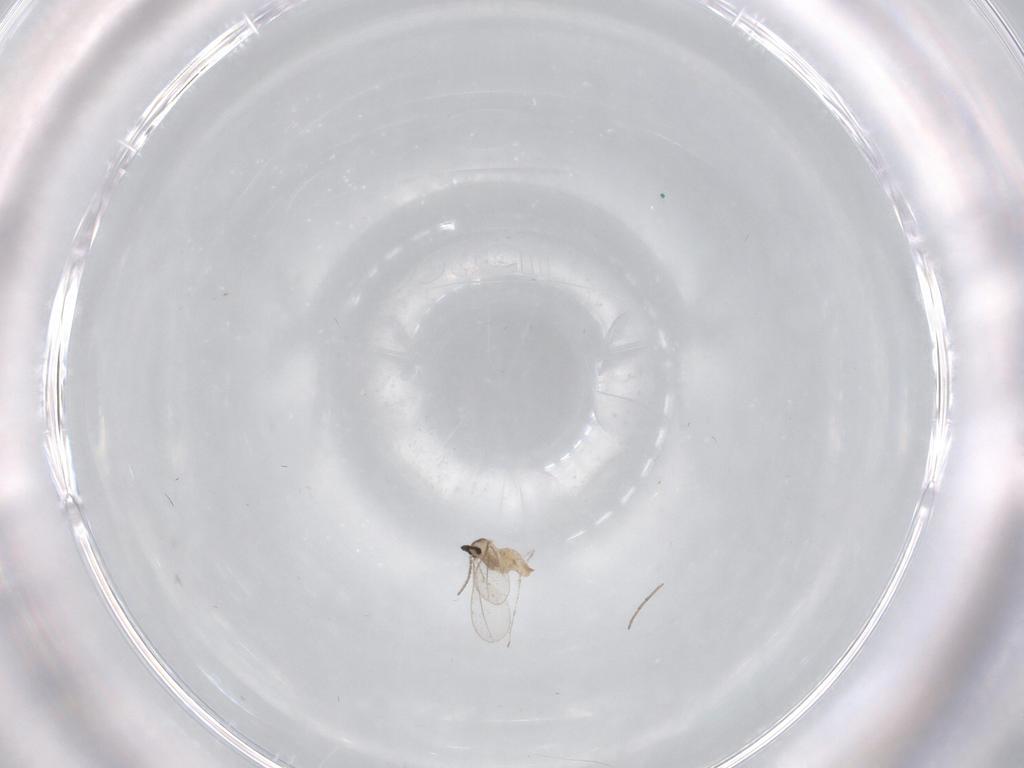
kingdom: Animalia
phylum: Arthropoda
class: Insecta
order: Diptera
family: Cecidomyiidae
